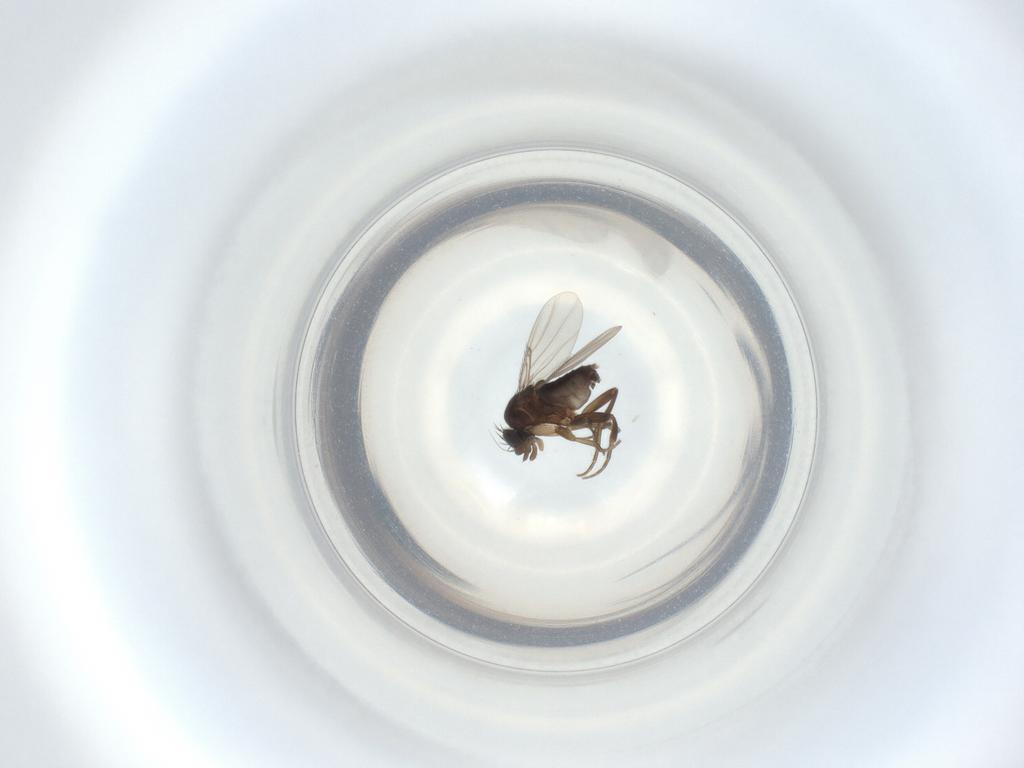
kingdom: Animalia
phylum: Arthropoda
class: Insecta
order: Diptera
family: Phoridae
